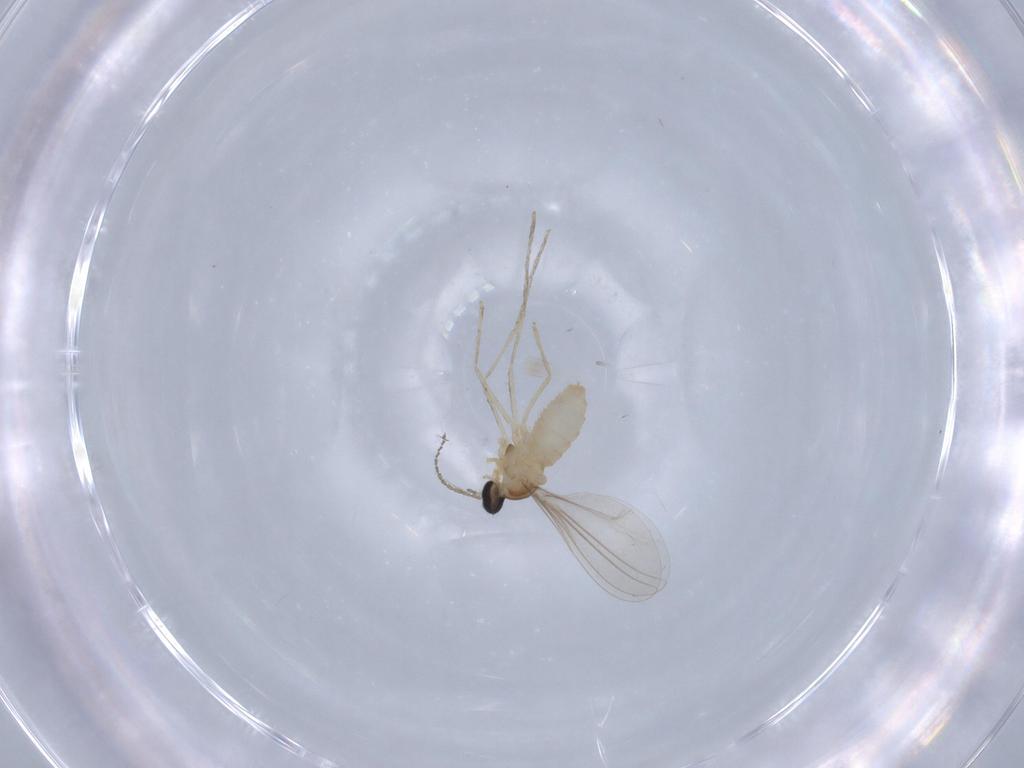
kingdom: Animalia
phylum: Arthropoda
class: Insecta
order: Diptera
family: Cecidomyiidae
